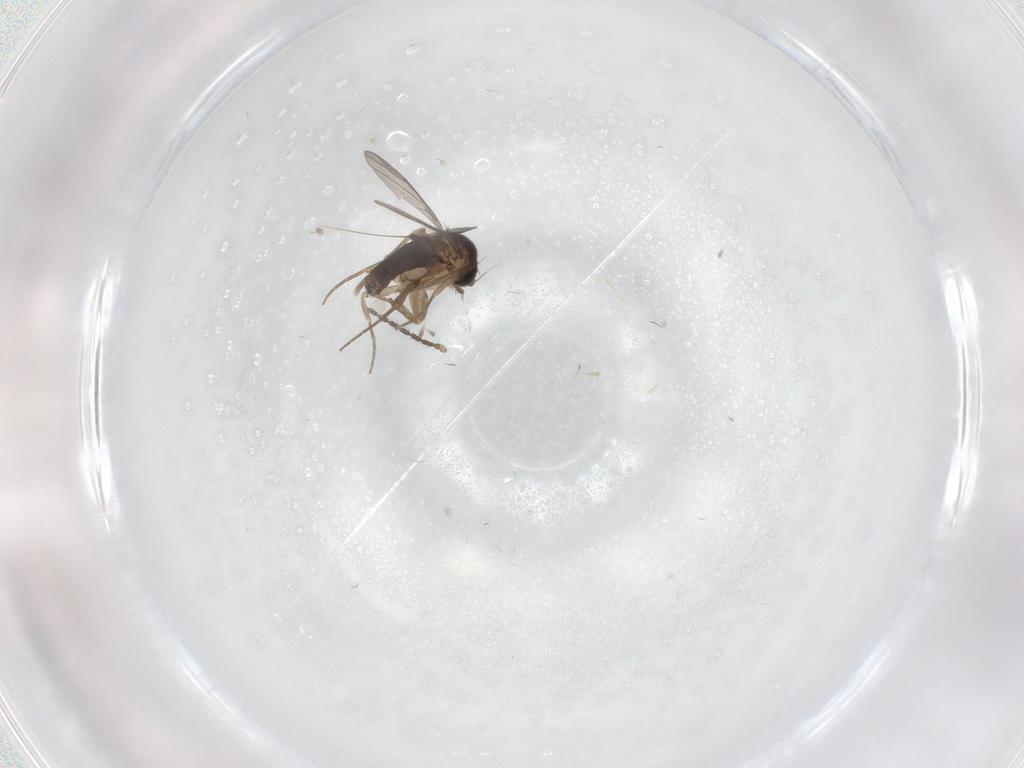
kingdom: Animalia
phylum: Arthropoda
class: Insecta
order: Diptera
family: Phoridae
